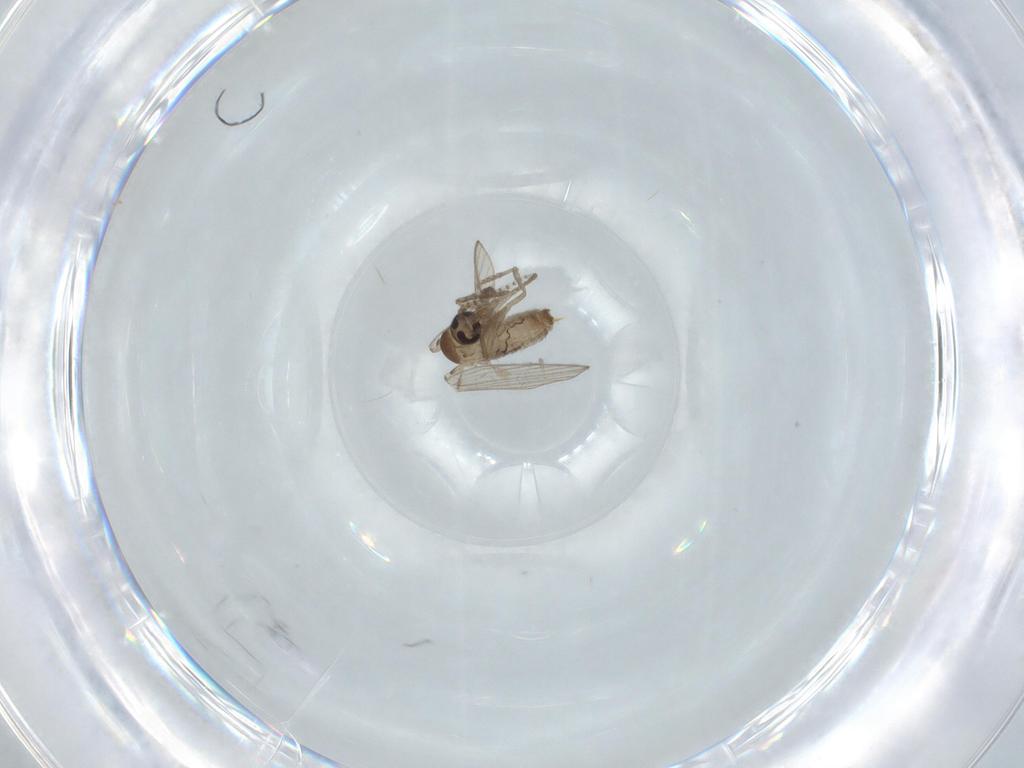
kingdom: Animalia
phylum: Arthropoda
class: Insecta
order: Diptera
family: Psychodidae
